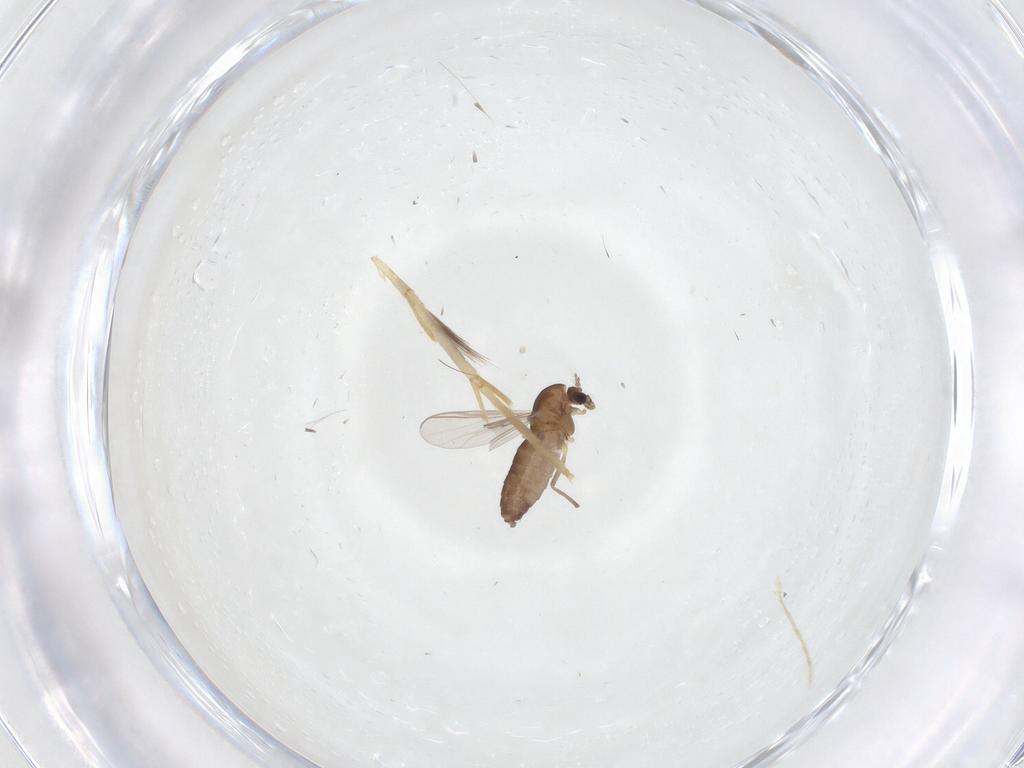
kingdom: Animalia
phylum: Arthropoda
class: Insecta
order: Diptera
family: Chironomidae
